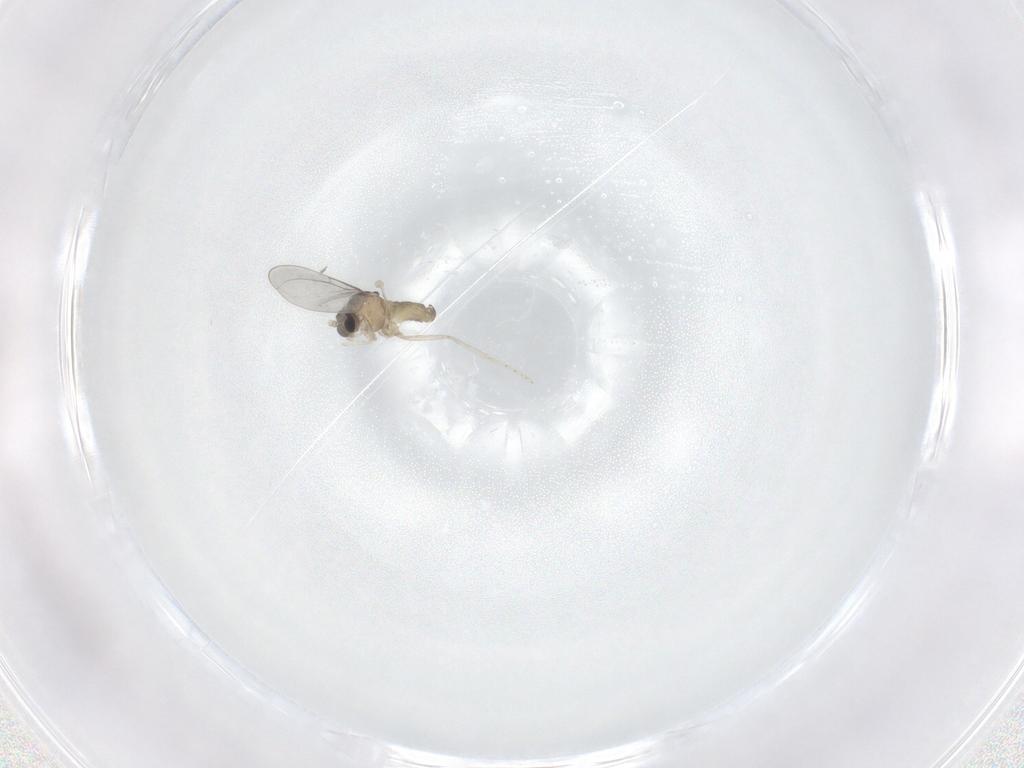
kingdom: Animalia
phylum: Arthropoda
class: Insecta
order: Diptera
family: Cecidomyiidae
